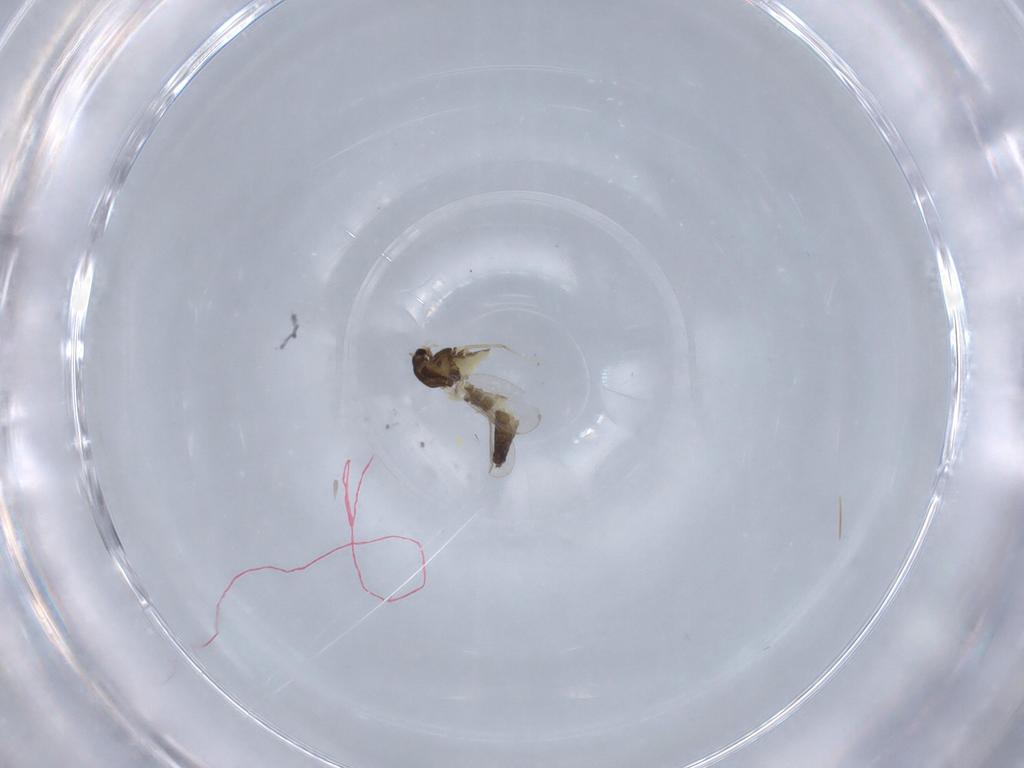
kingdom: Animalia
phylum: Arthropoda
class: Insecta
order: Diptera
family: Chironomidae
